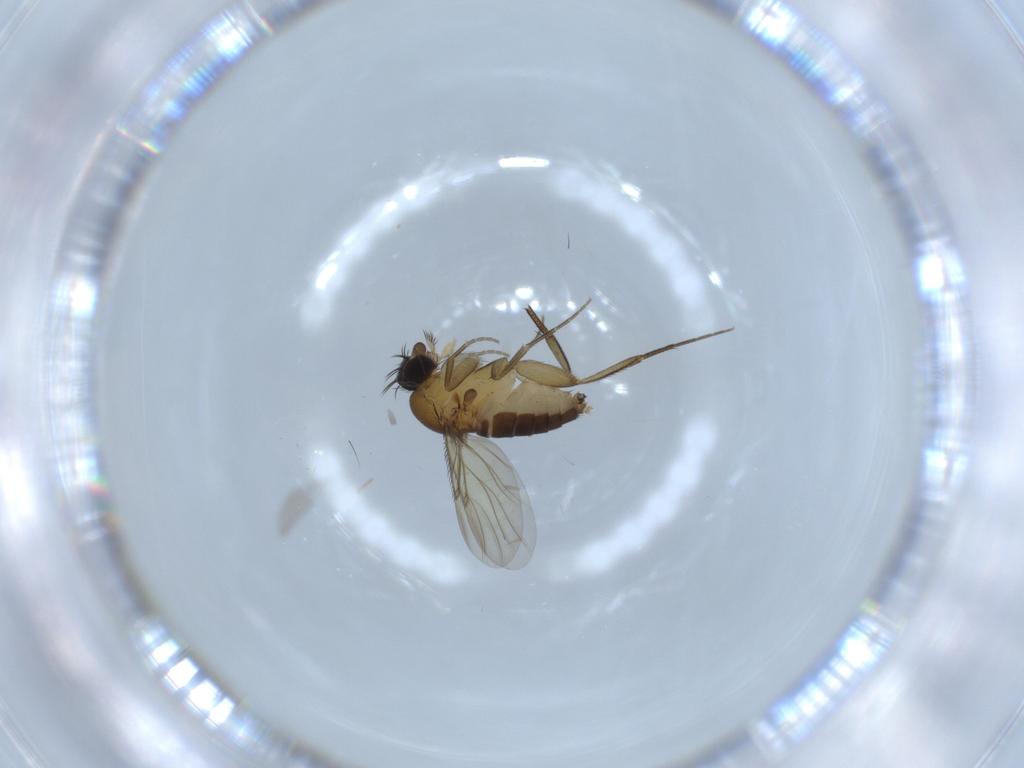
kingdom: Animalia
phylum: Arthropoda
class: Insecta
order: Diptera
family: Phoridae
